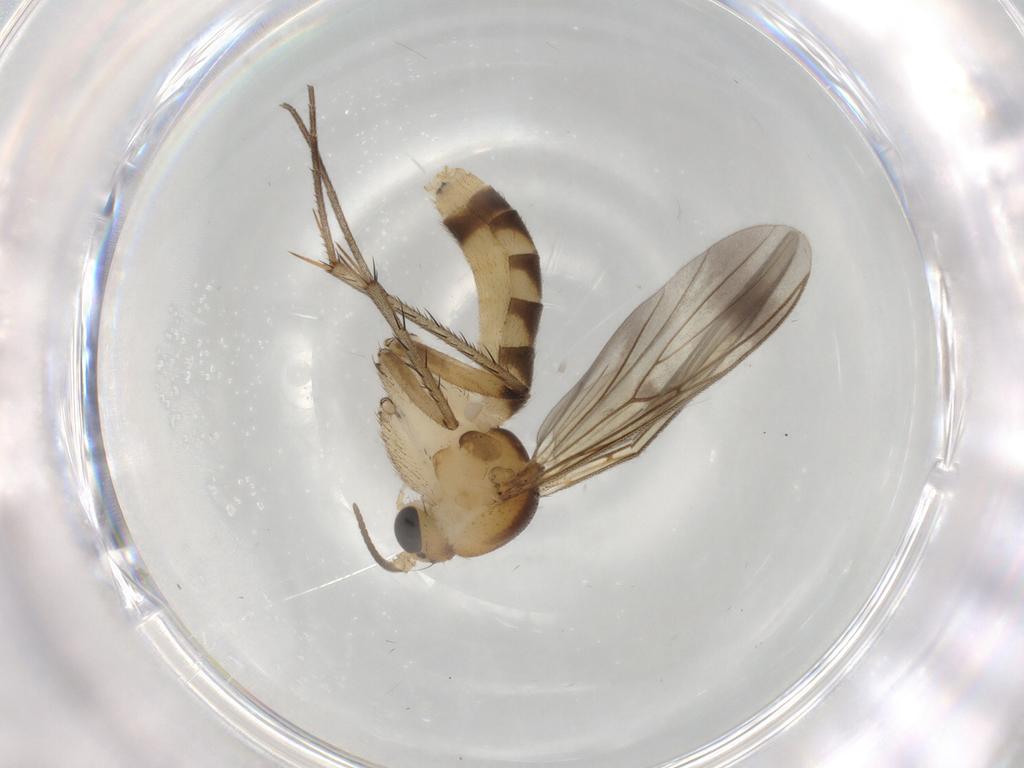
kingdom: Animalia
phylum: Arthropoda
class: Insecta
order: Diptera
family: Mycetophilidae
